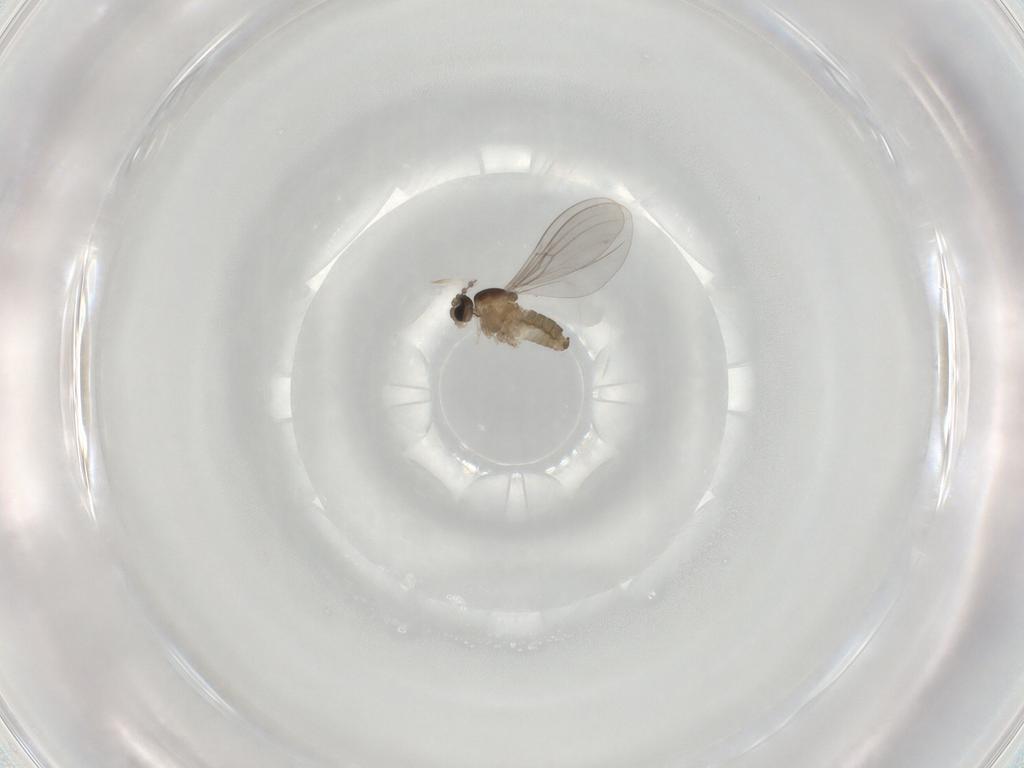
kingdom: Animalia
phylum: Arthropoda
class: Insecta
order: Diptera
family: Cecidomyiidae
